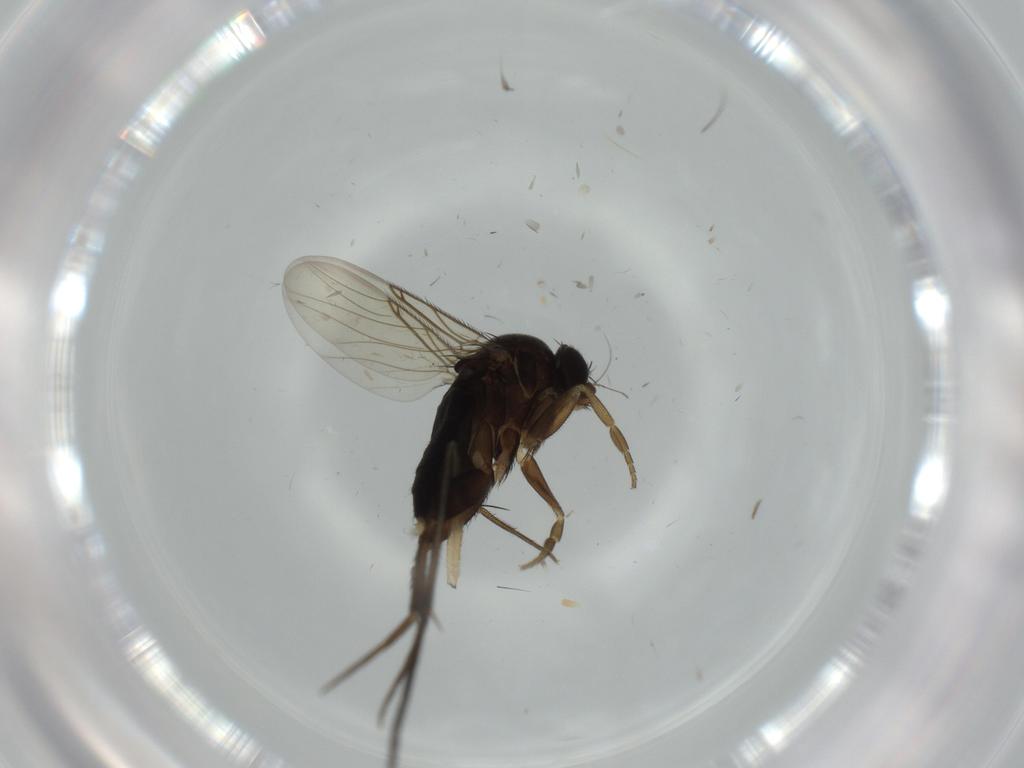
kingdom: Animalia
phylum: Arthropoda
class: Insecta
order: Diptera
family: Phoridae
